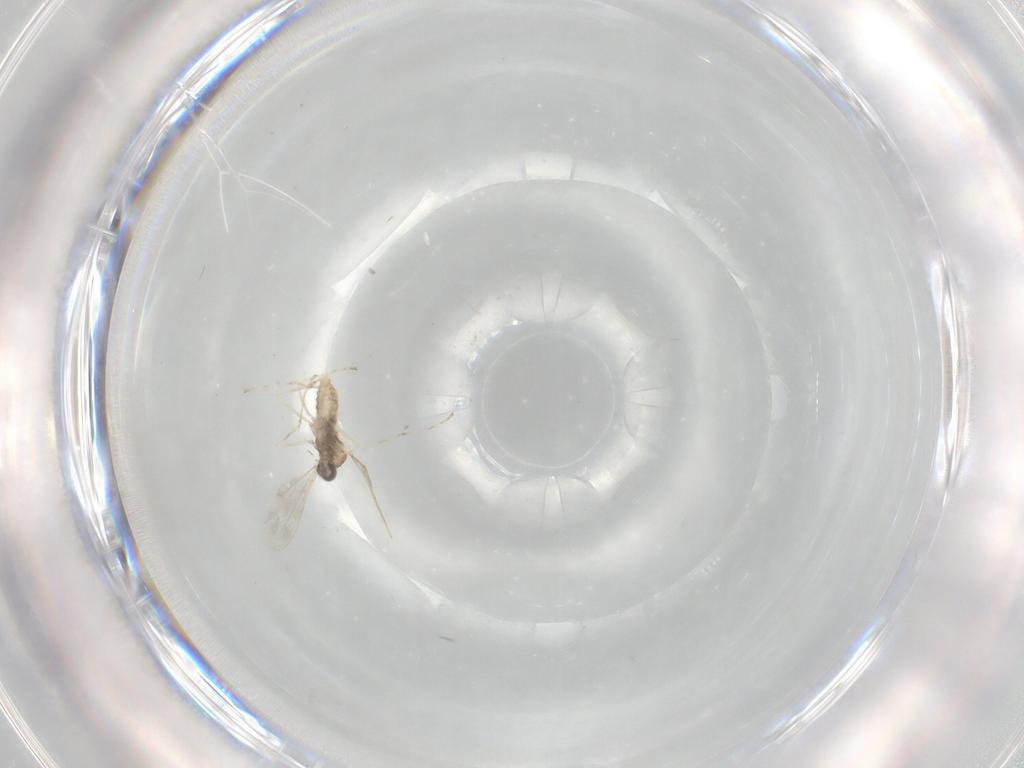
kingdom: Animalia
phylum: Arthropoda
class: Insecta
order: Diptera
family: Cecidomyiidae
